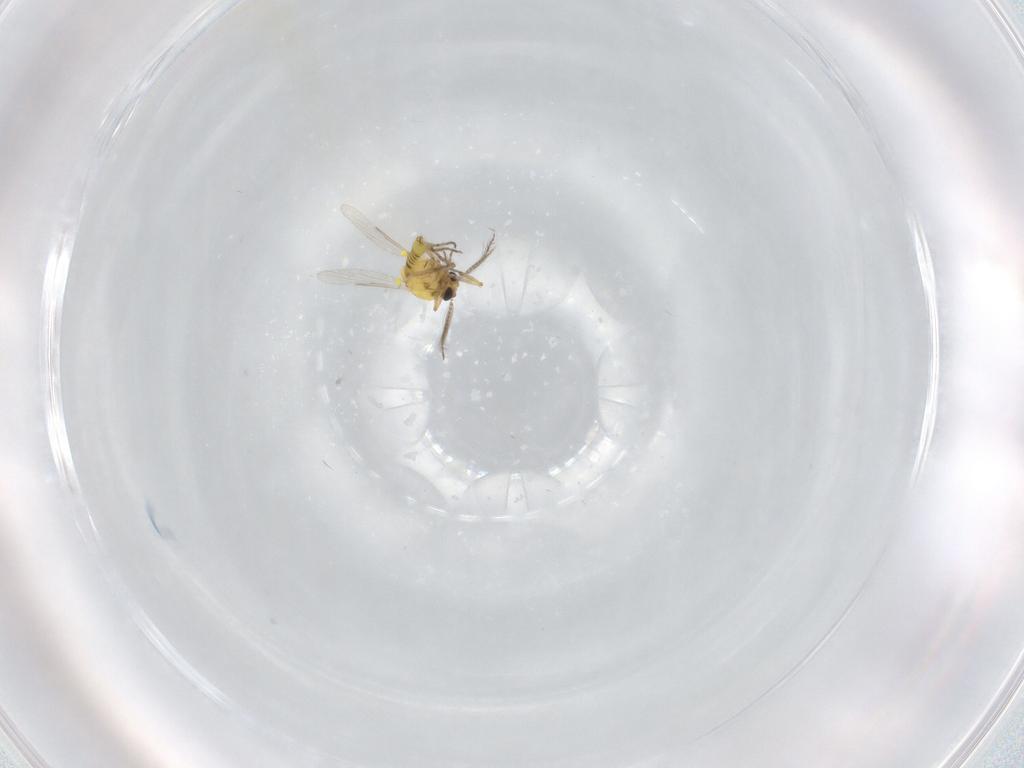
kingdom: Animalia
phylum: Arthropoda
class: Insecta
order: Diptera
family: Ceratopogonidae
